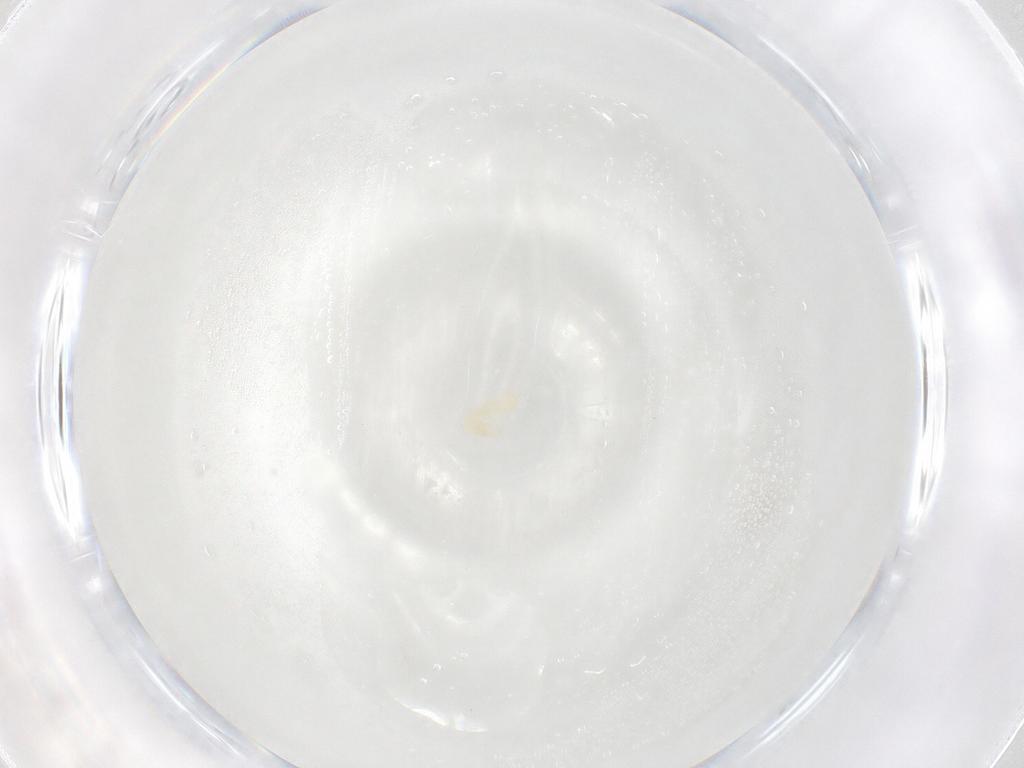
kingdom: Animalia
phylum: Arthropoda
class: Arachnida
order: Trombidiformes
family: Eupodidae
